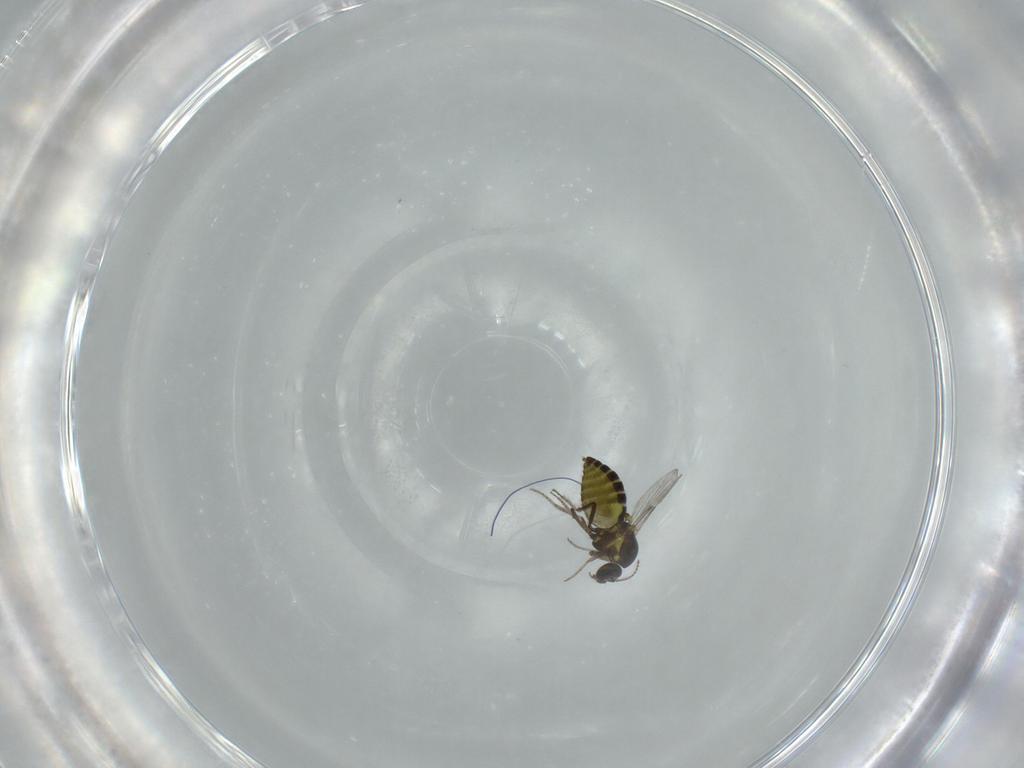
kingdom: Animalia
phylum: Arthropoda
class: Insecta
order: Diptera
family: Ceratopogonidae
